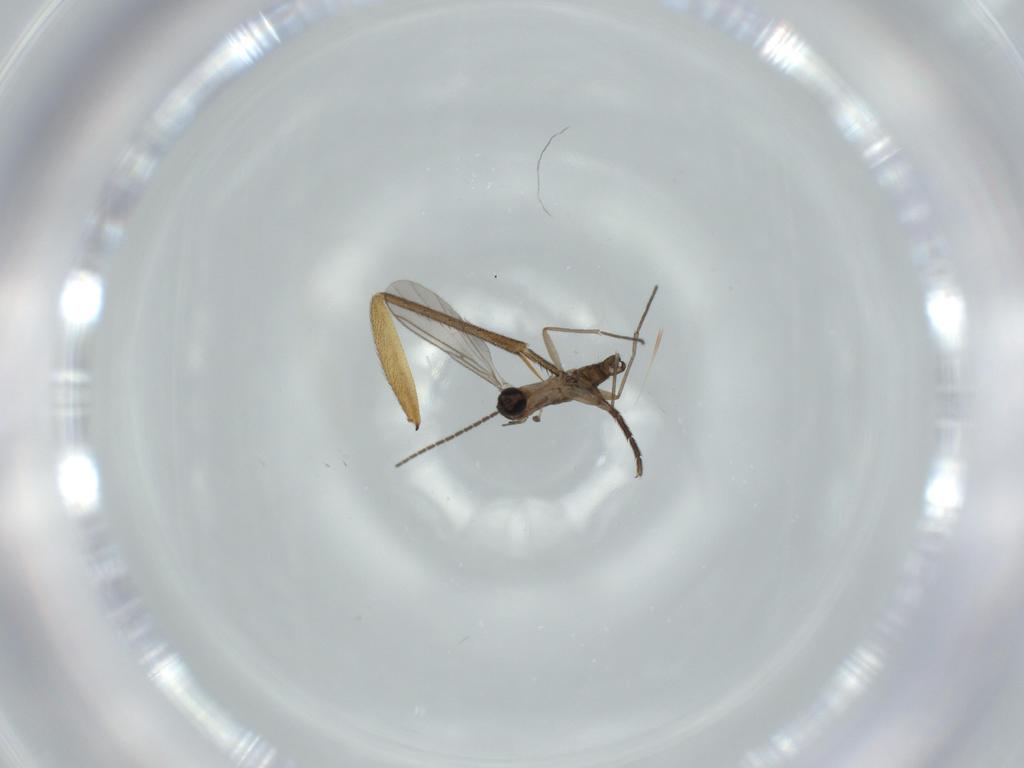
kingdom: Animalia
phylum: Arthropoda
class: Insecta
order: Diptera
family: Sciaridae
